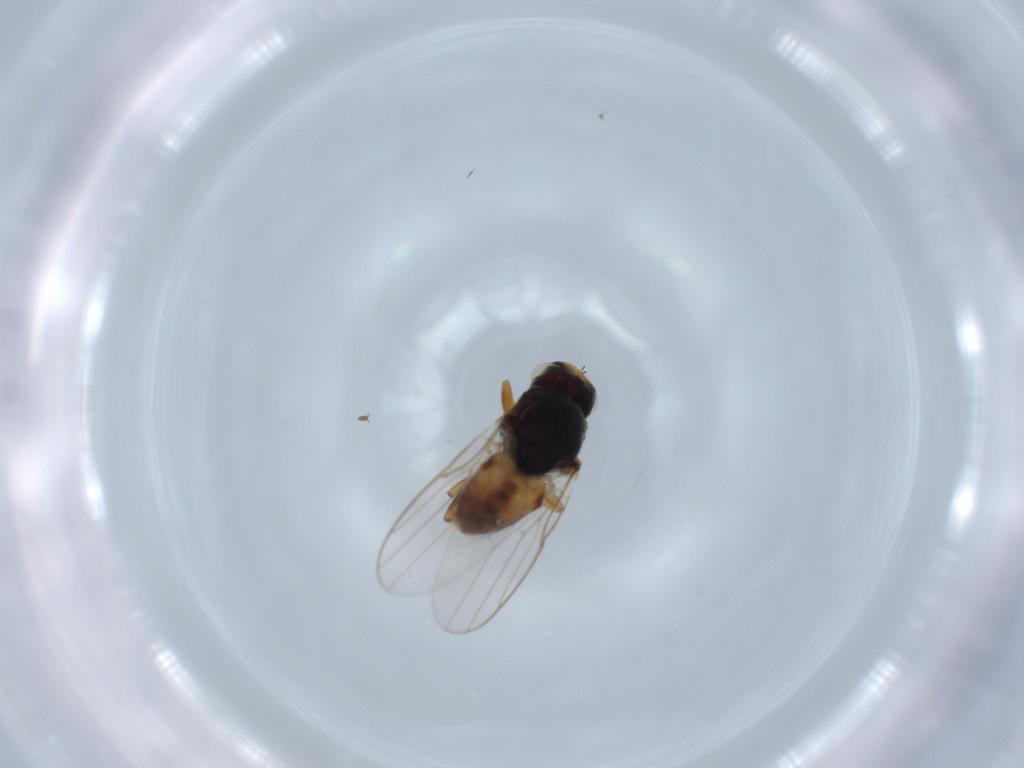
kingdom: Animalia
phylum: Arthropoda
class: Insecta
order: Diptera
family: Chloropidae
